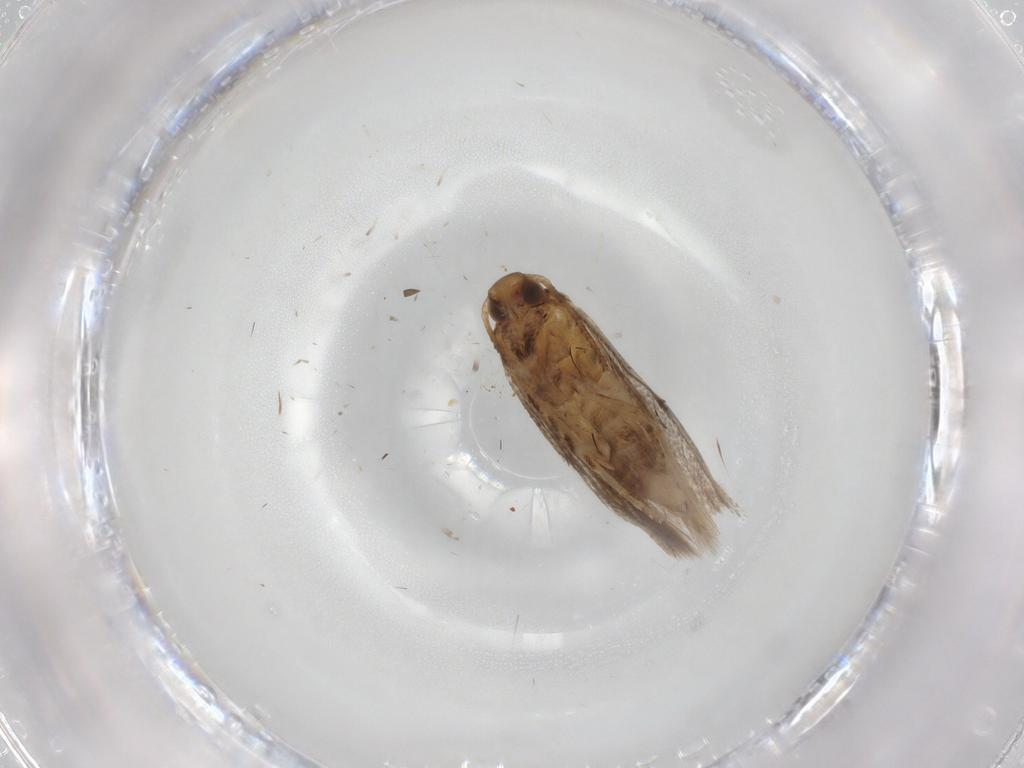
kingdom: Animalia
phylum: Arthropoda
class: Insecta
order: Lepidoptera
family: Gelechiidae
